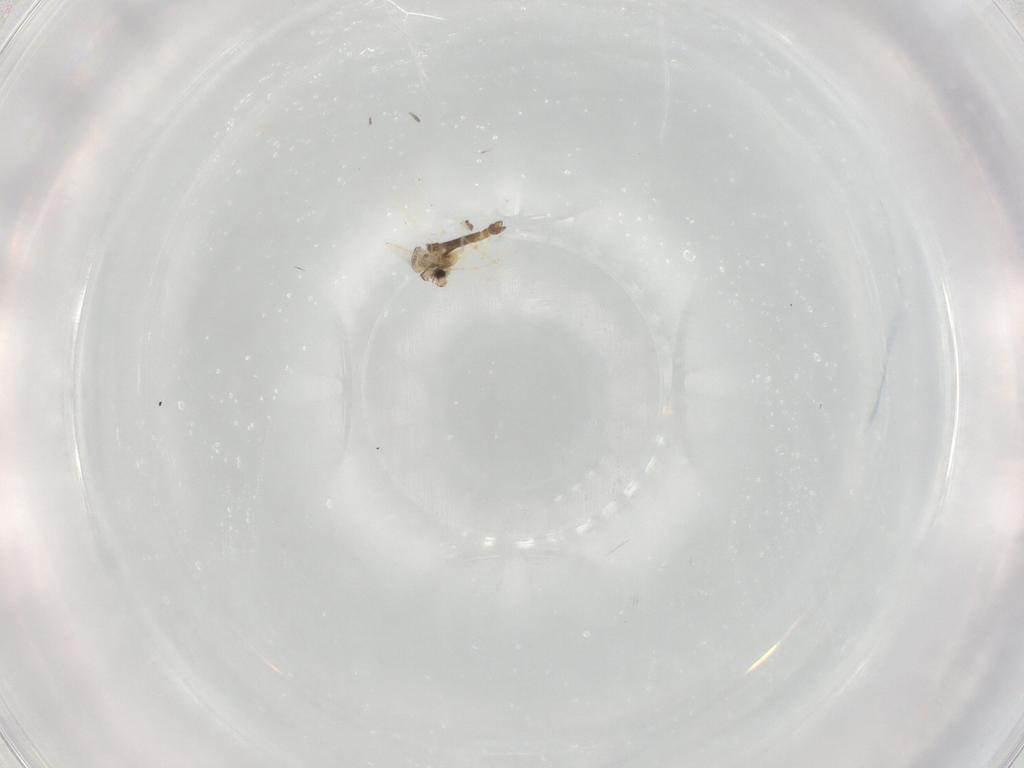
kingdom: Animalia
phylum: Arthropoda
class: Insecta
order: Diptera
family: Chironomidae
